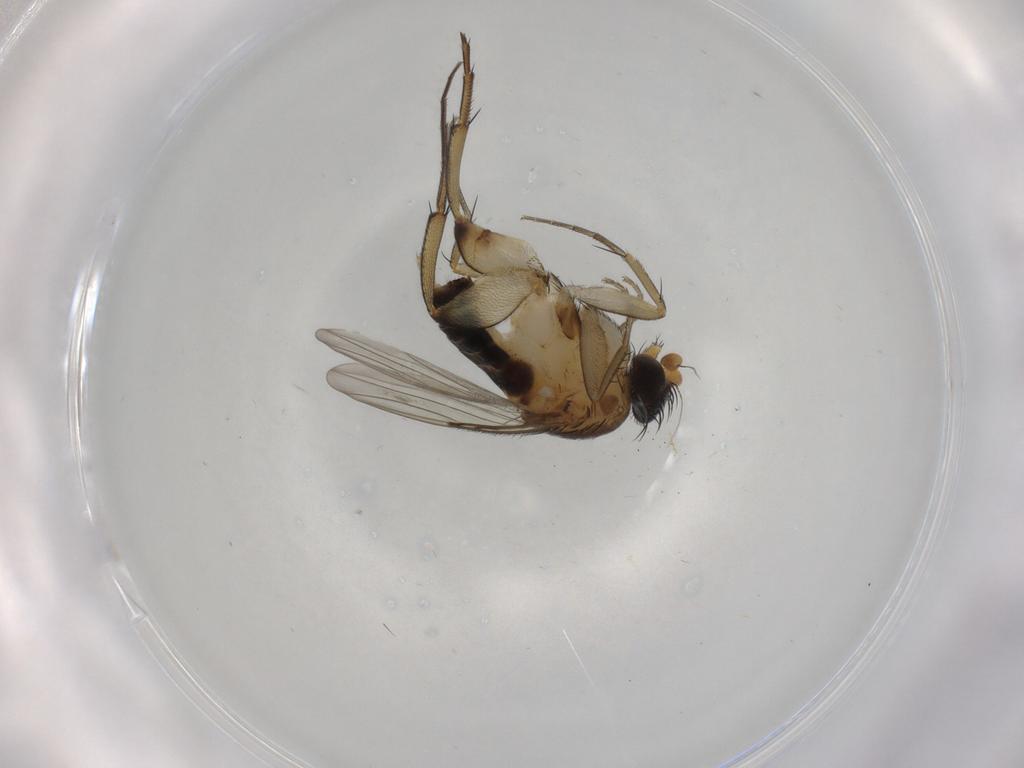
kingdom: Animalia
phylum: Arthropoda
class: Insecta
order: Diptera
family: Phoridae
